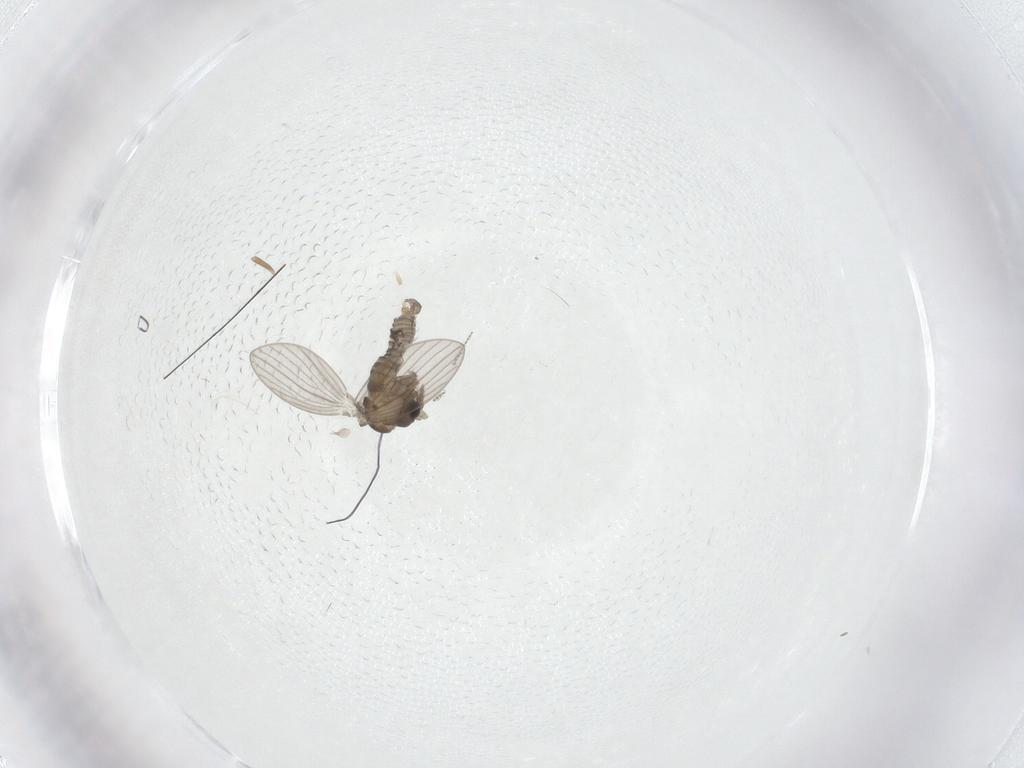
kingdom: Animalia
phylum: Arthropoda
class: Insecta
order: Diptera
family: Psychodidae
